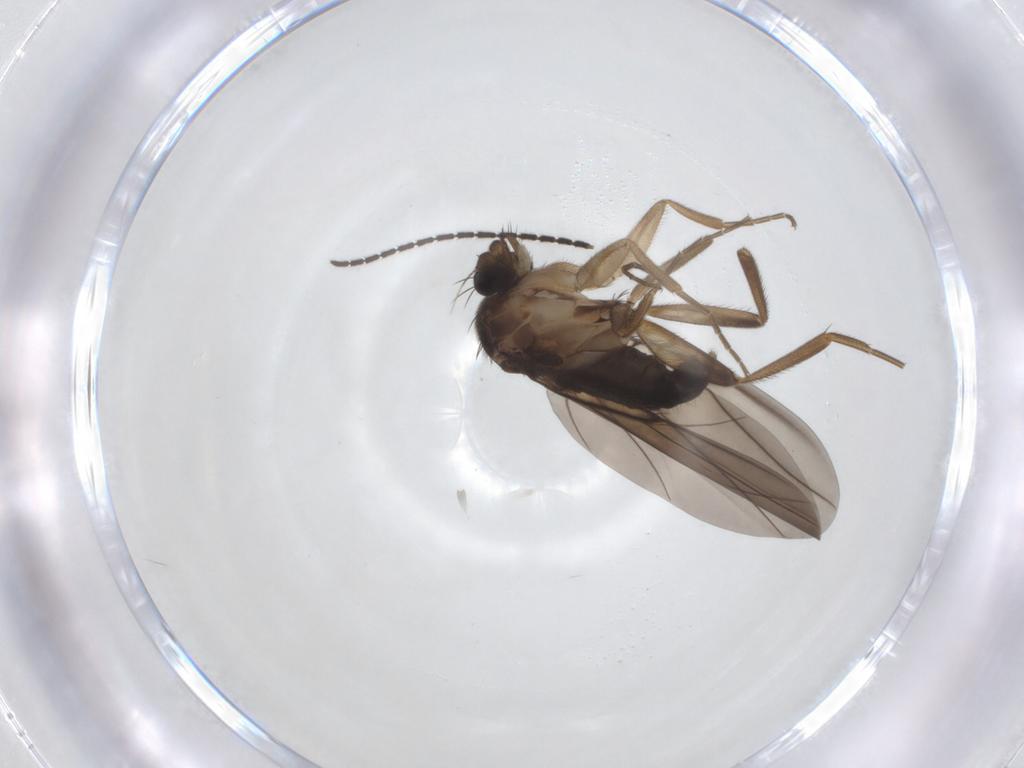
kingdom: Animalia
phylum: Arthropoda
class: Insecta
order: Diptera
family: Phoridae
